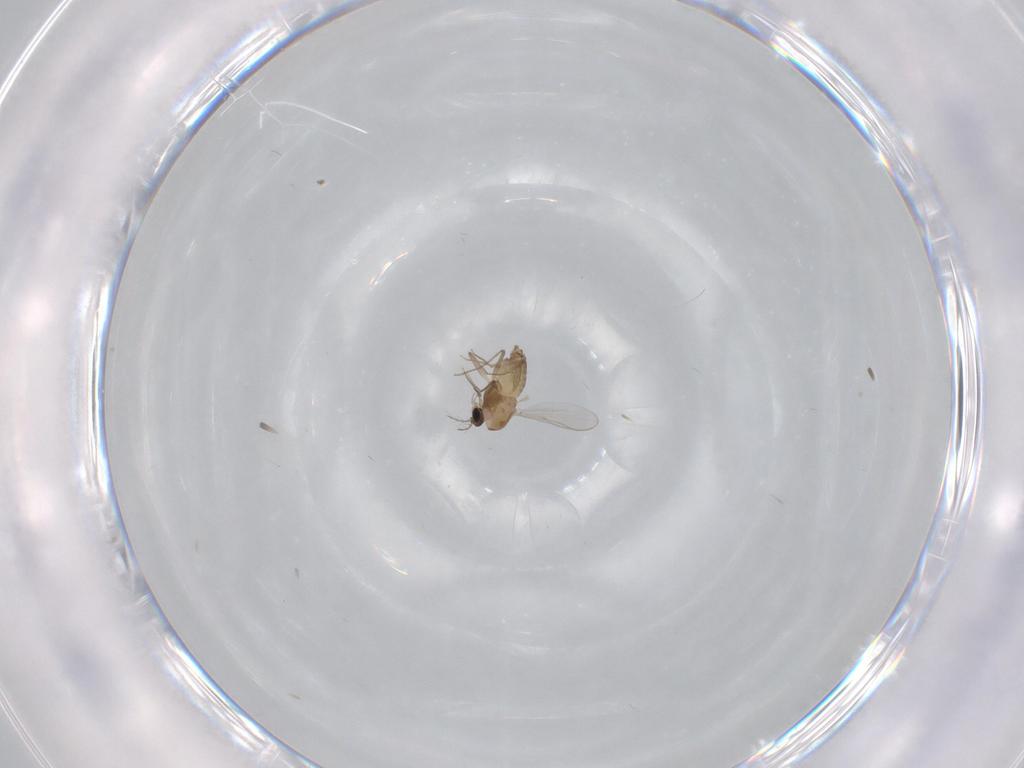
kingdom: Animalia
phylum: Arthropoda
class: Insecta
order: Diptera
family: Chironomidae
